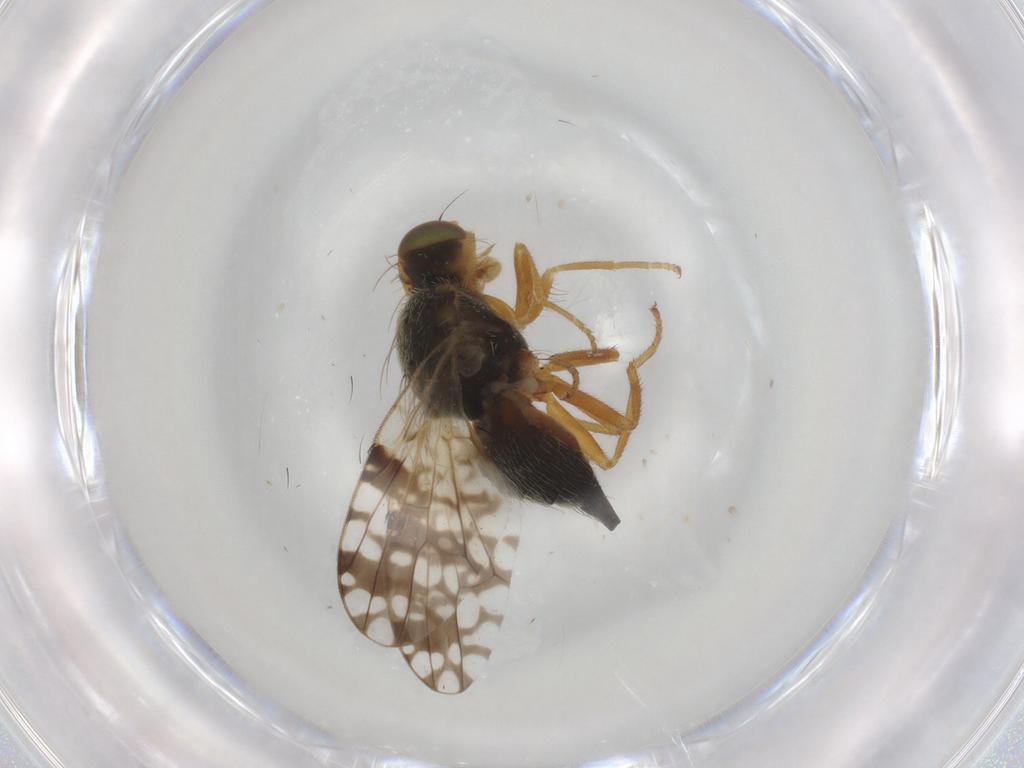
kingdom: Animalia
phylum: Arthropoda
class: Insecta
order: Diptera
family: Tephritidae
